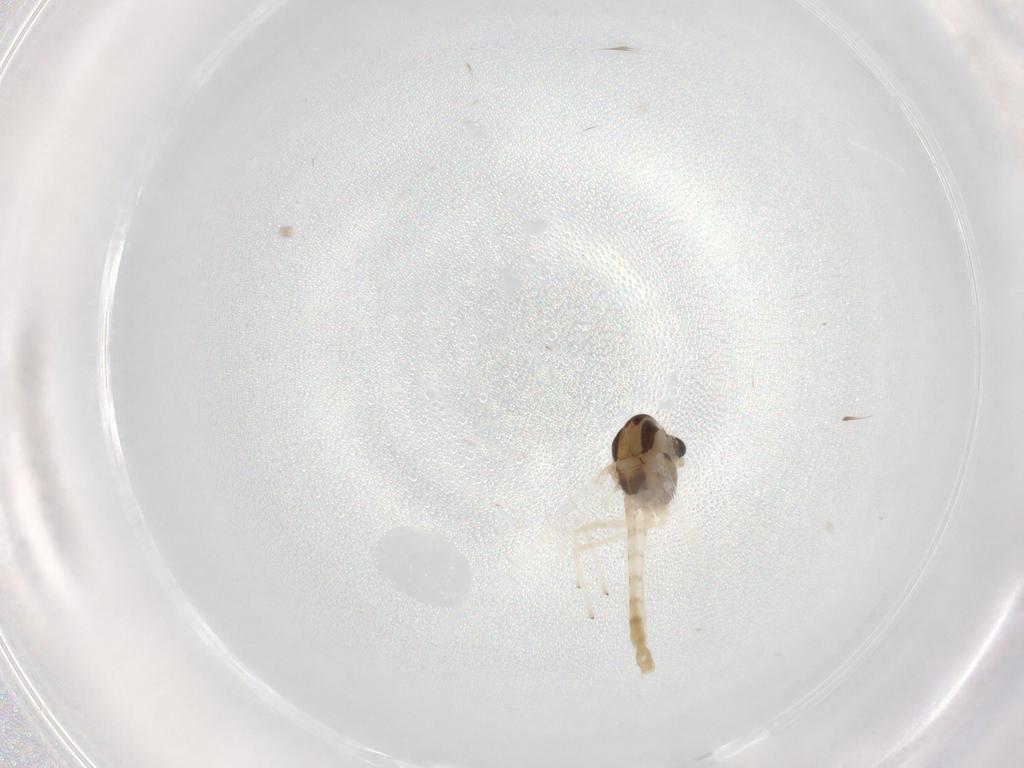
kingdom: Animalia
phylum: Arthropoda
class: Insecta
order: Diptera
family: Chironomidae
